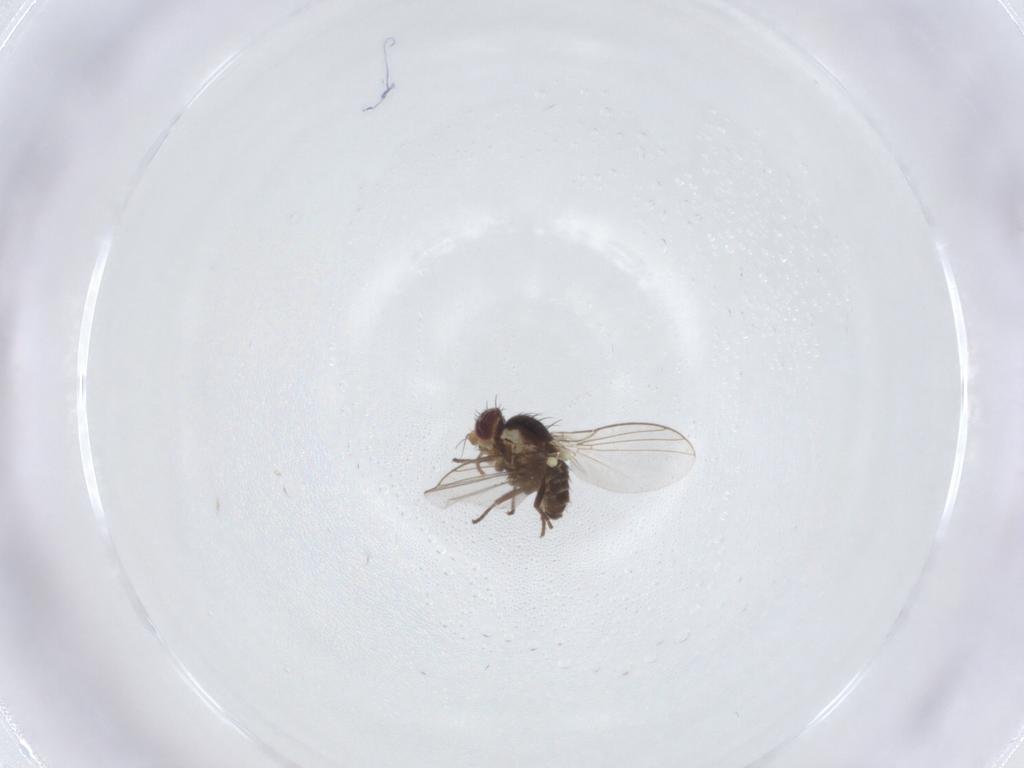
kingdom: Animalia
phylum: Arthropoda
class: Insecta
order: Diptera
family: Agromyzidae
